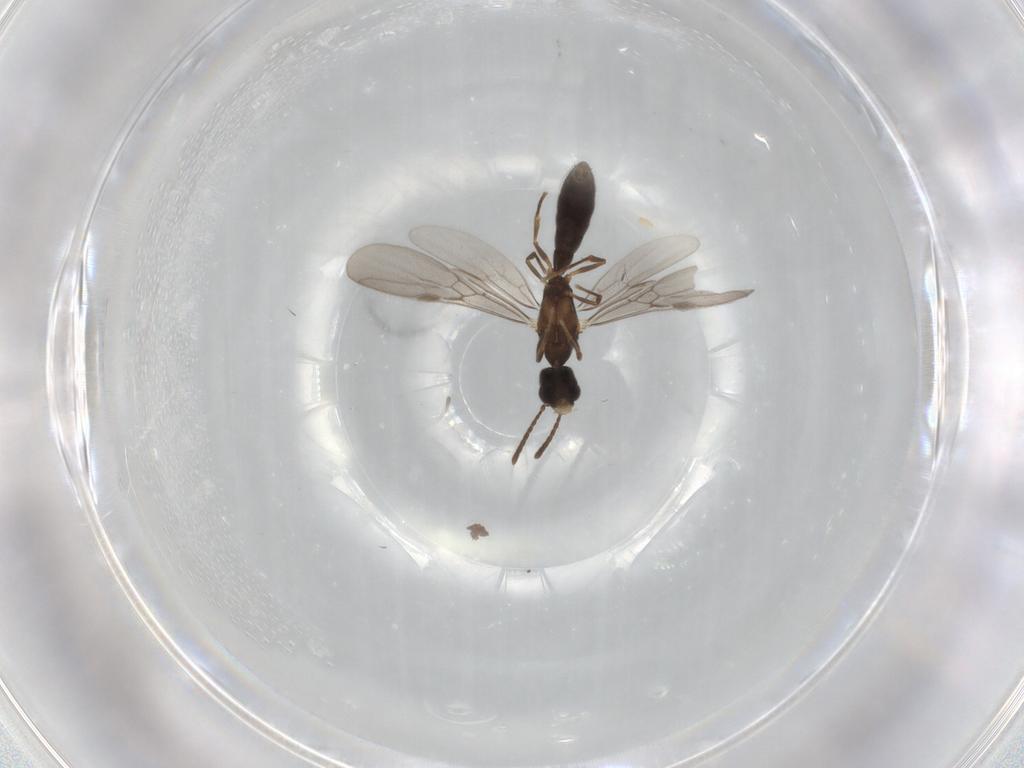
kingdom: Animalia
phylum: Arthropoda
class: Insecta
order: Hymenoptera
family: Formicidae
